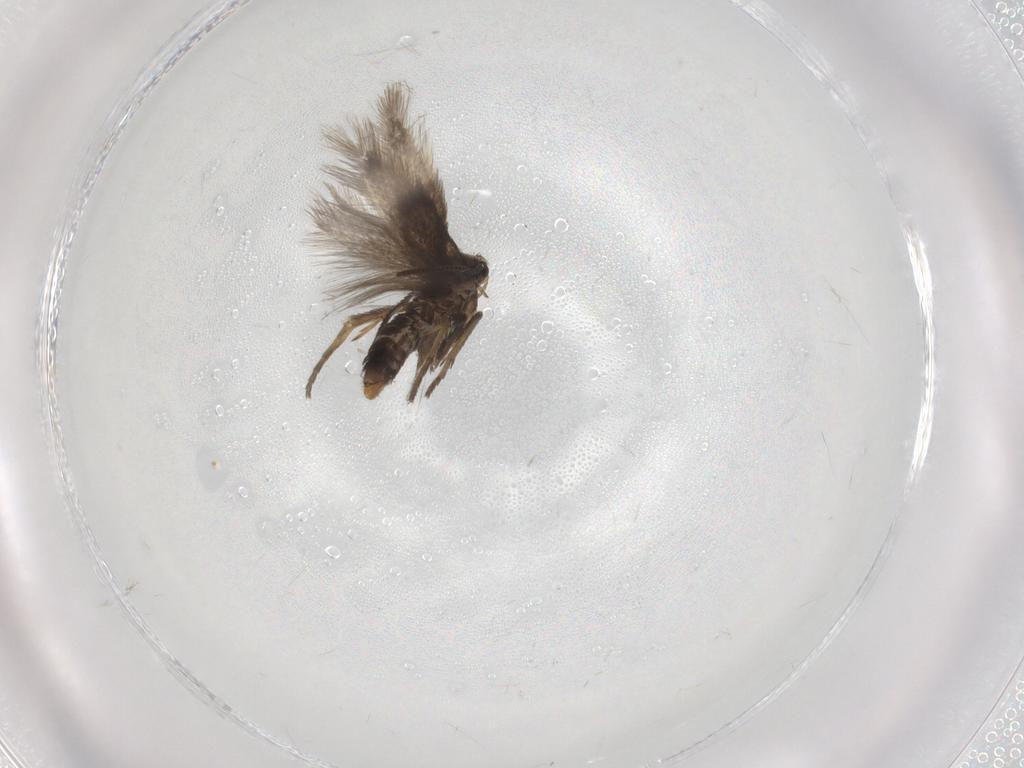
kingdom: Animalia
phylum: Arthropoda
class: Insecta
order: Lepidoptera
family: Nepticulidae
